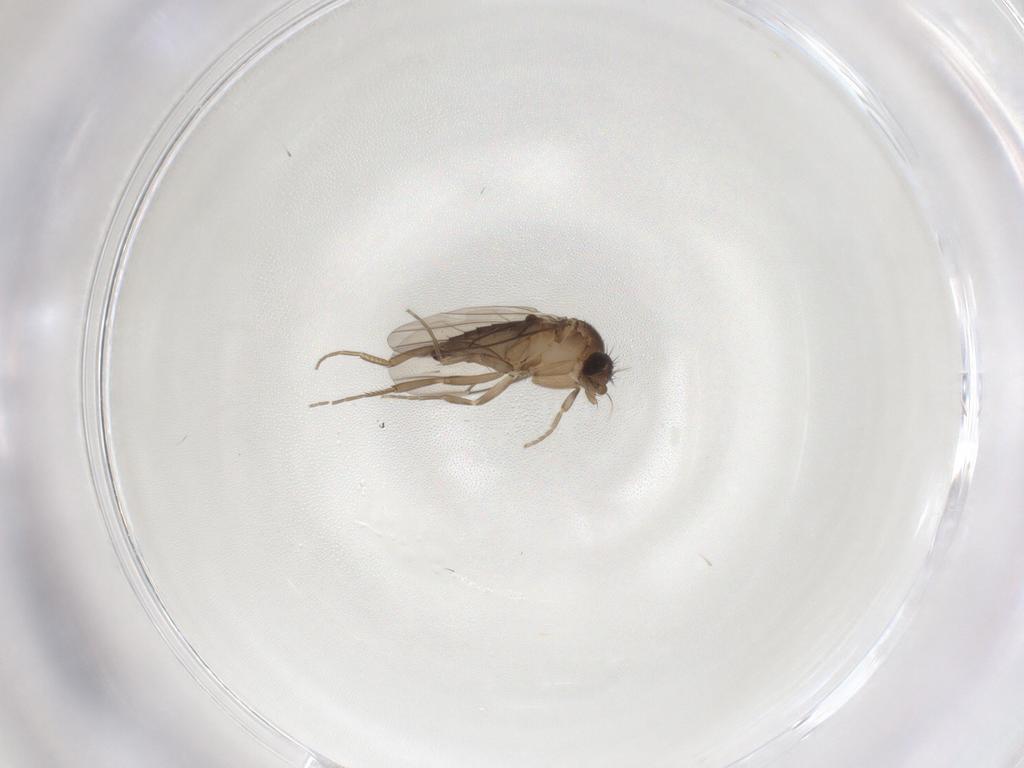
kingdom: Animalia
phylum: Arthropoda
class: Insecta
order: Diptera
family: Phoridae
